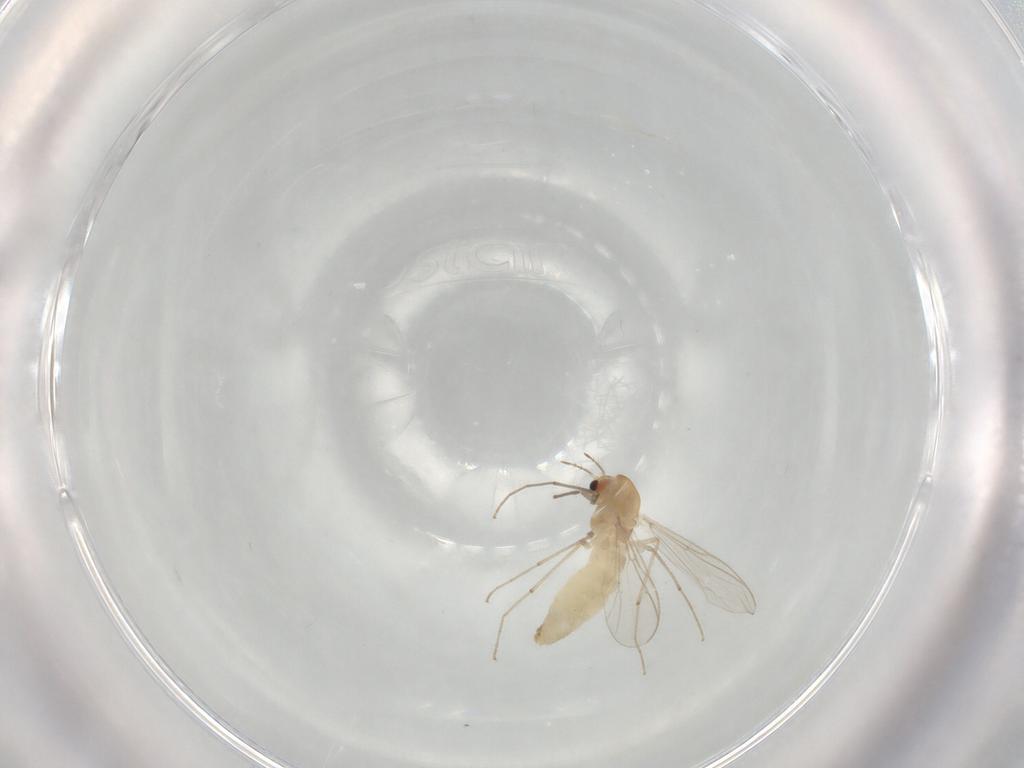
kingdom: Animalia
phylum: Arthropoda
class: Insecta
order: Diptera
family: Chironomidae
